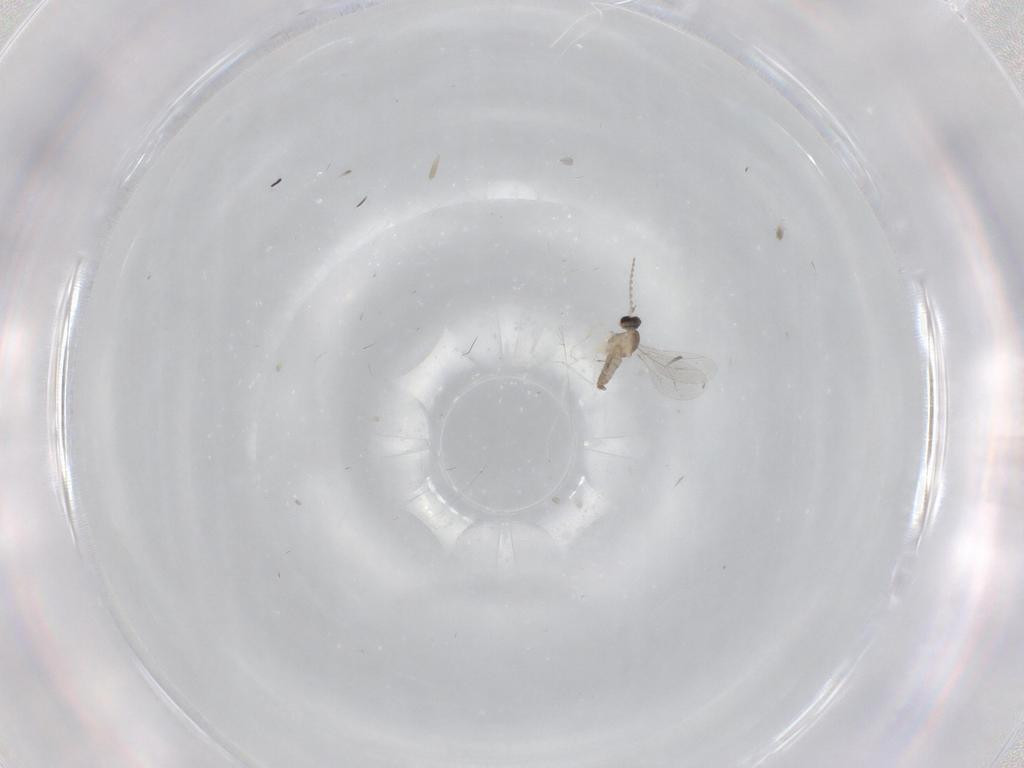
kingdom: Animalia
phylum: Arthropoda
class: Insecta
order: Diptera
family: Cecidomyiidae
